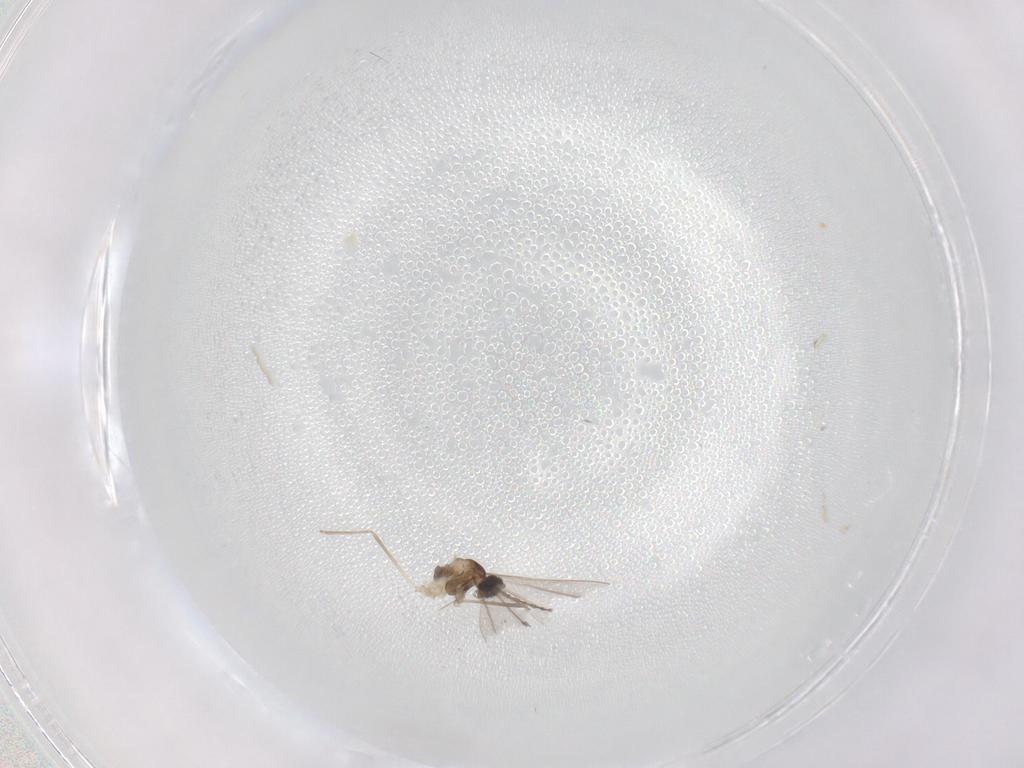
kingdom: Animalia
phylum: Arthropoda
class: Insecta
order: Diptera
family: Cecidomyiidae
